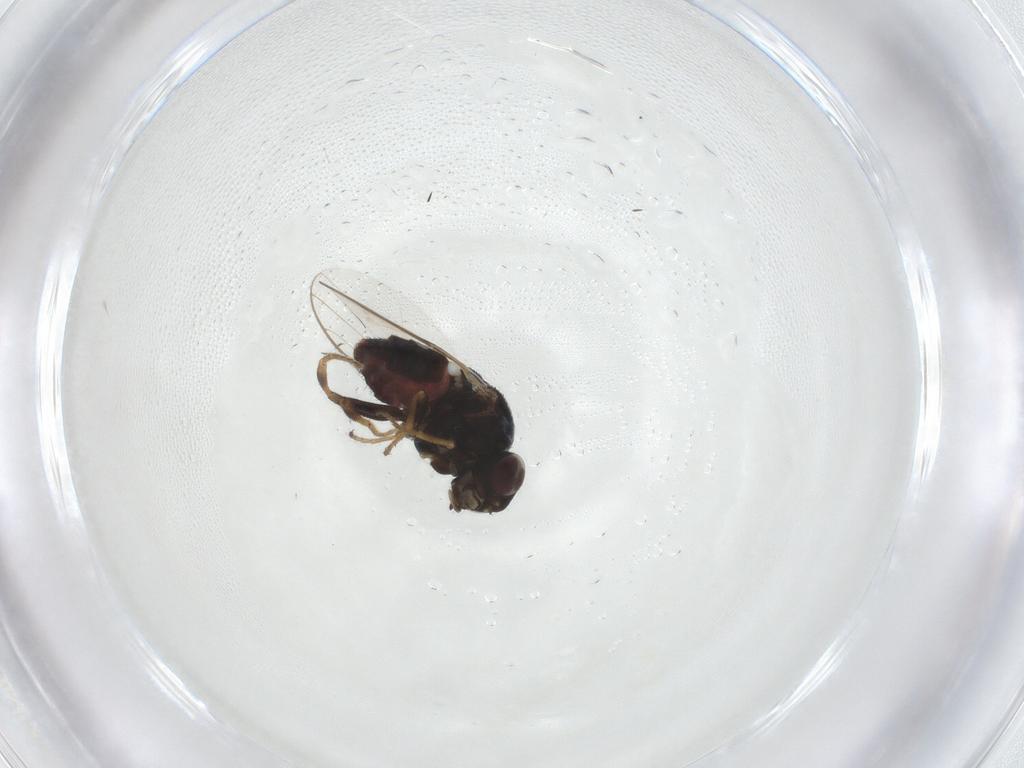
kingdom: Animalia
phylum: Arthropoda
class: Insecta
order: Diptera
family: Chloropidae
